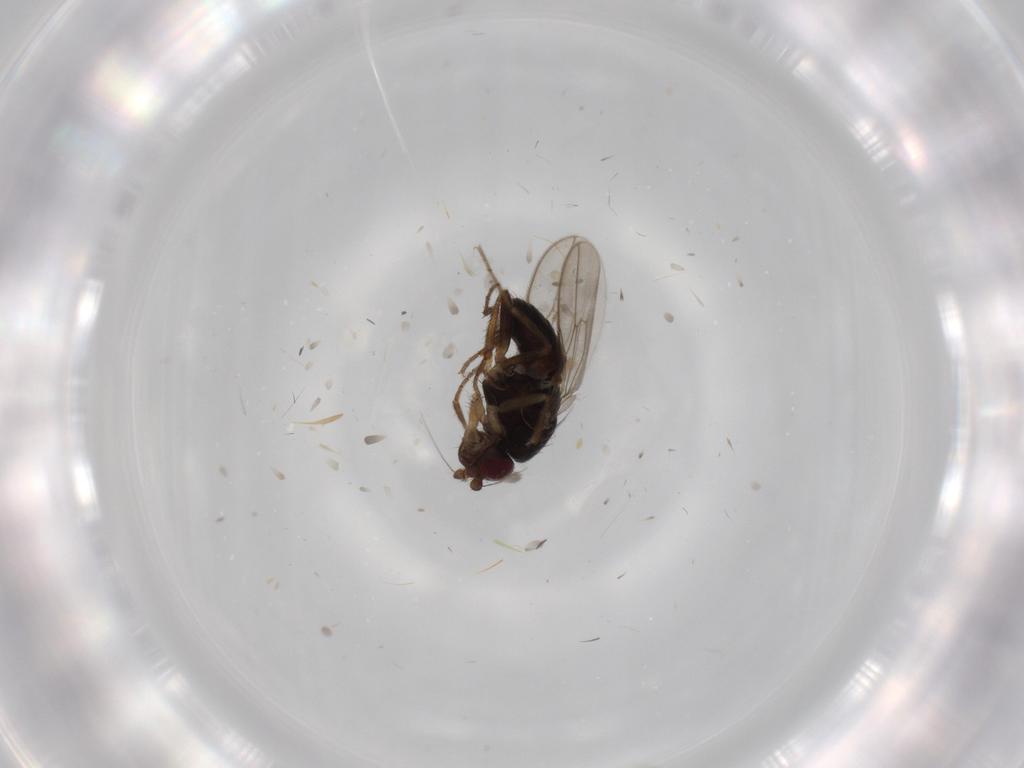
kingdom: Animalia
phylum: Arthropoda
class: Insecta
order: Diptera
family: Sphaeroceridae
